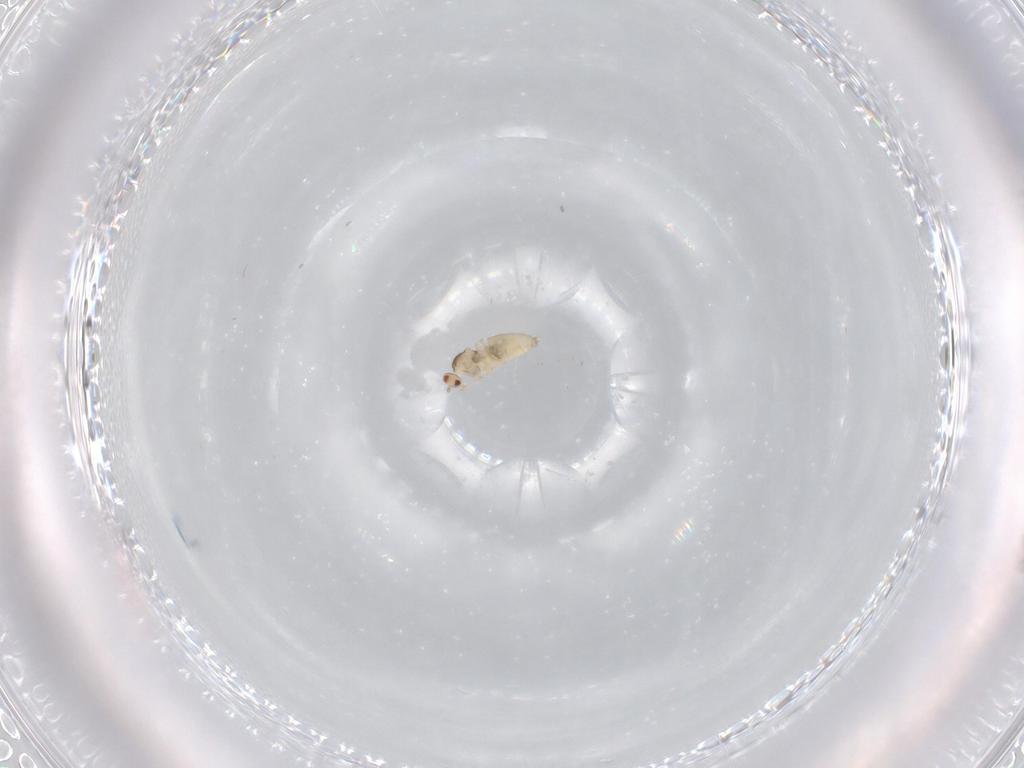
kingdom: Animalia
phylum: Arthropoda
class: Insecta
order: Diptera
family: Cecidomyiidae
